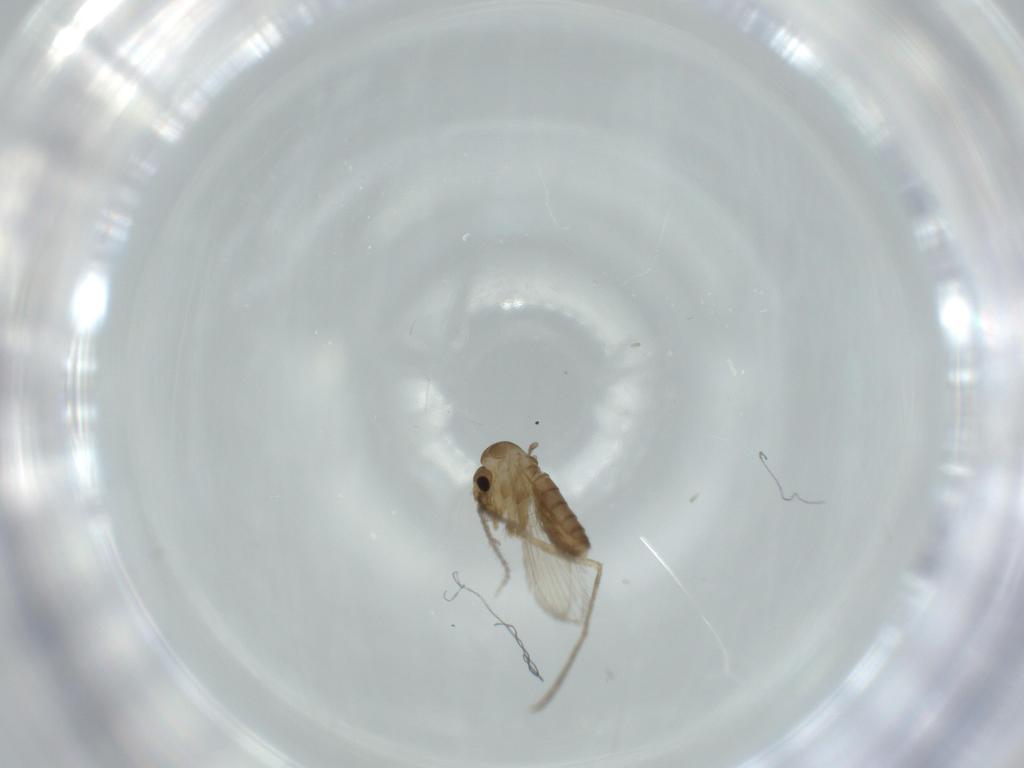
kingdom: Animalia
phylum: Arthropoda
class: Insecta
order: Diptera
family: Psychodidae
